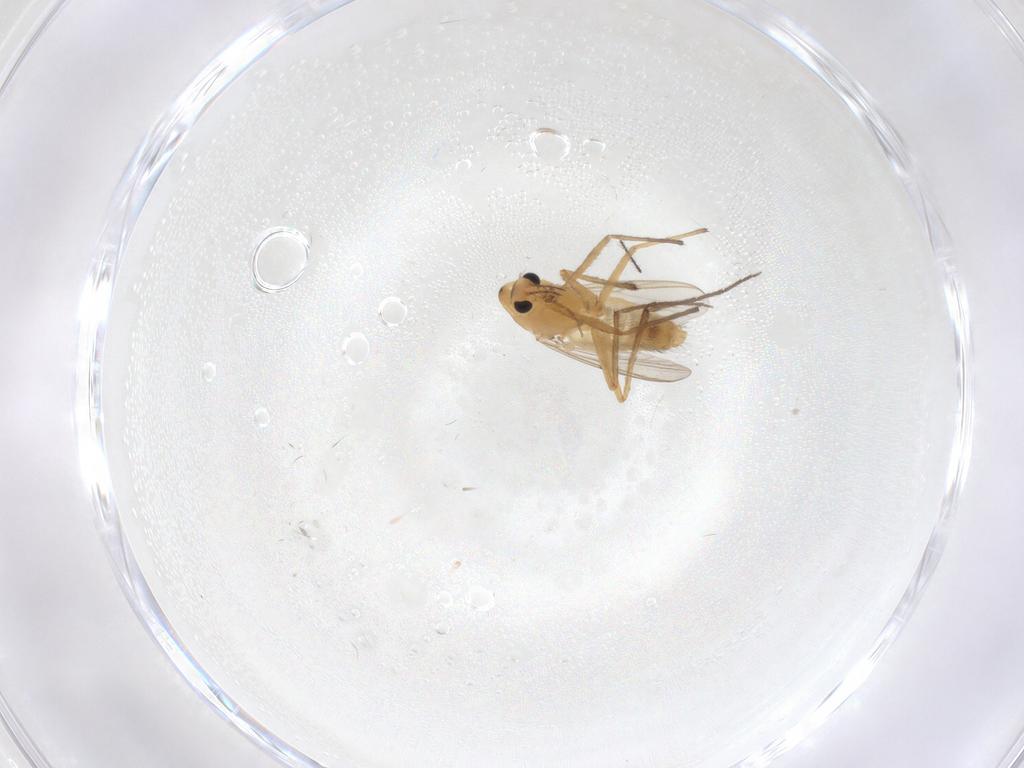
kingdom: Animalia
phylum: Arthropoda
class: Insecta
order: Diptera
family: Chironomidae
